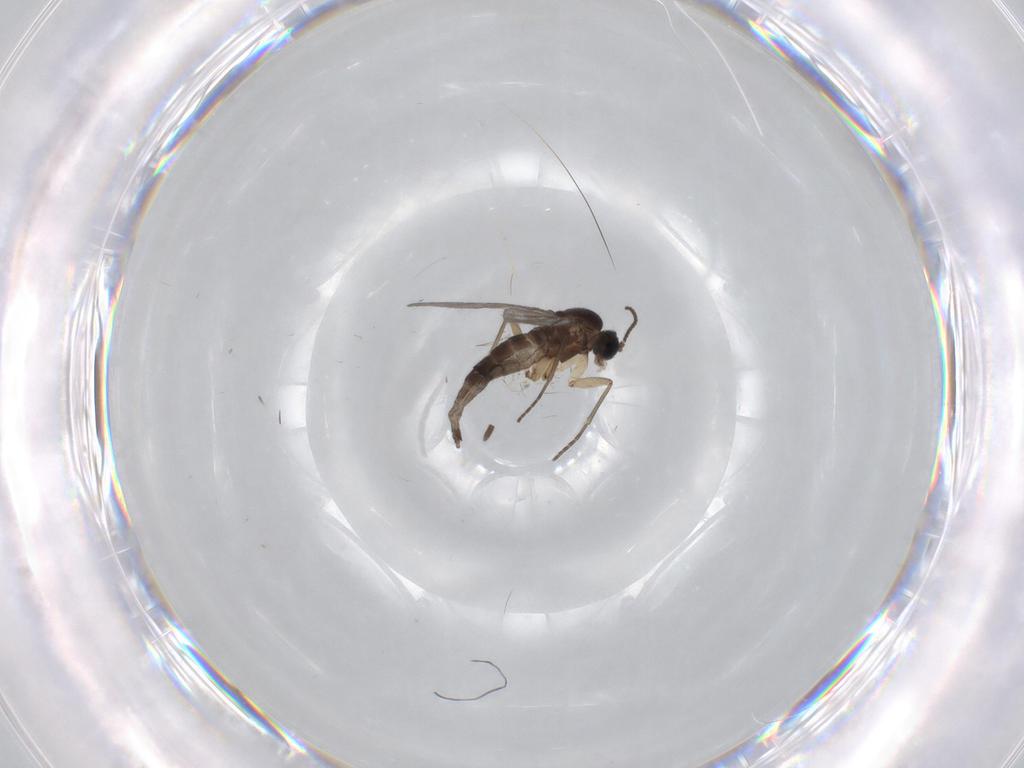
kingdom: Animalia
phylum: Arthropoda
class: Insecta
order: Diptera
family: Sciaridae
